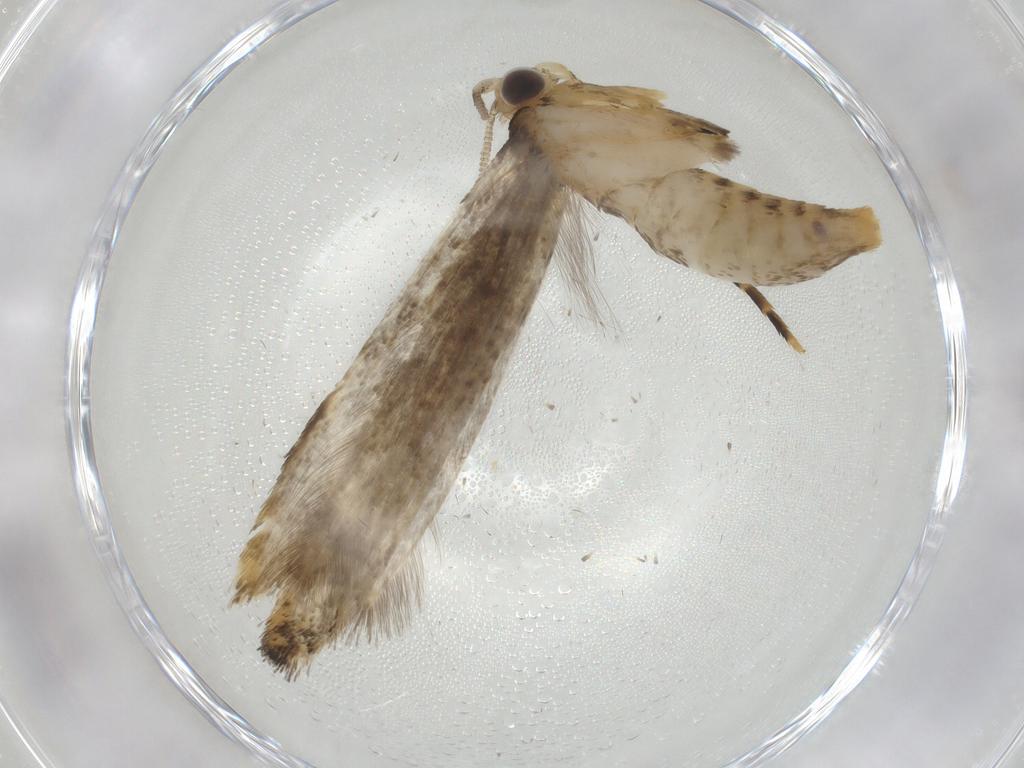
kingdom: Animalia
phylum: Arthropoda
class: Insecta
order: Lepidoptera
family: Tineidae
